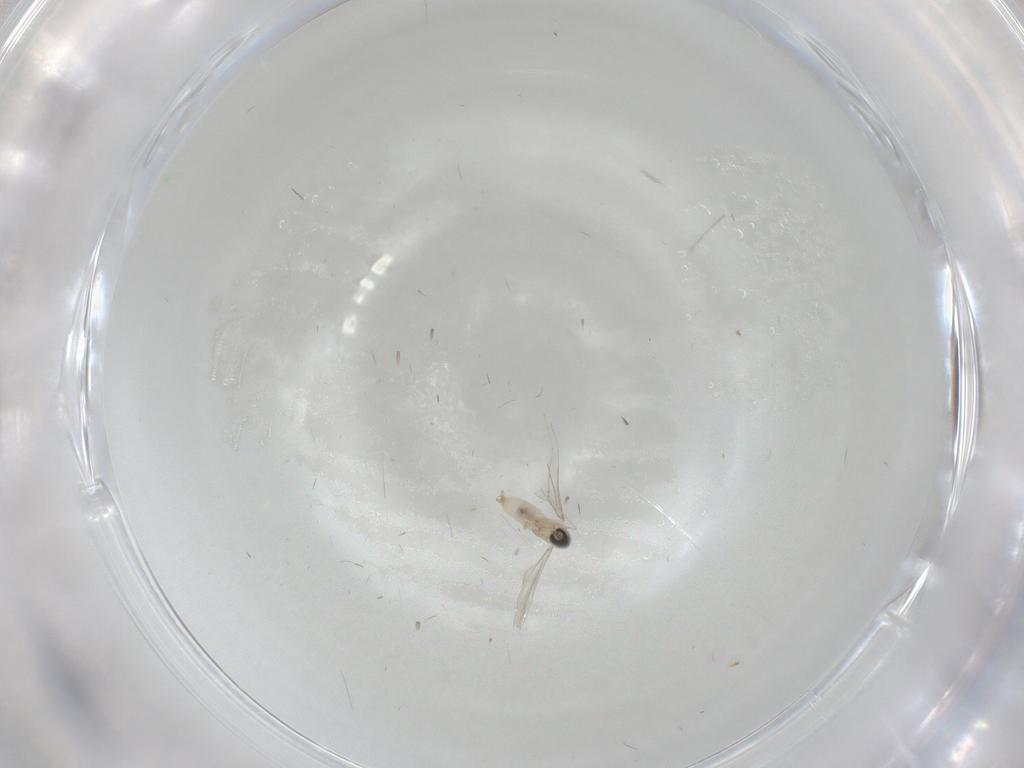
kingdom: Animalia
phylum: Arthropoda
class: Insecta
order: Diptera
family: Cecidomyiidae
